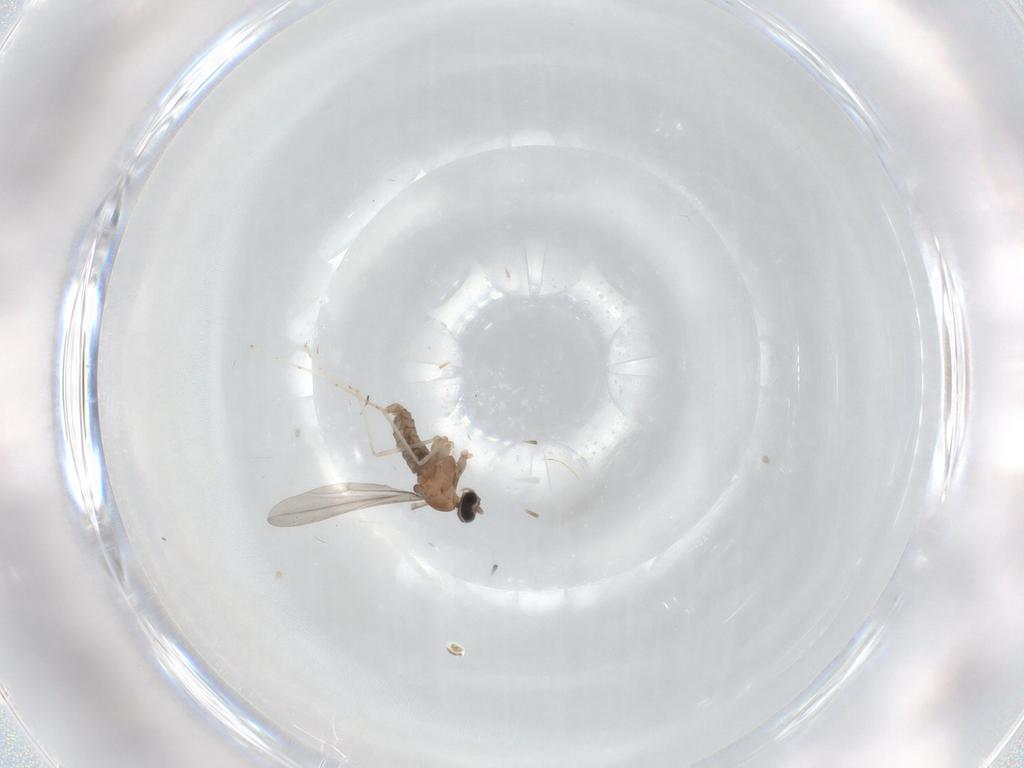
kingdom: Animalia
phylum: Arthropoda
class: Insecta
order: Diptera
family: Cecidomyiidae
